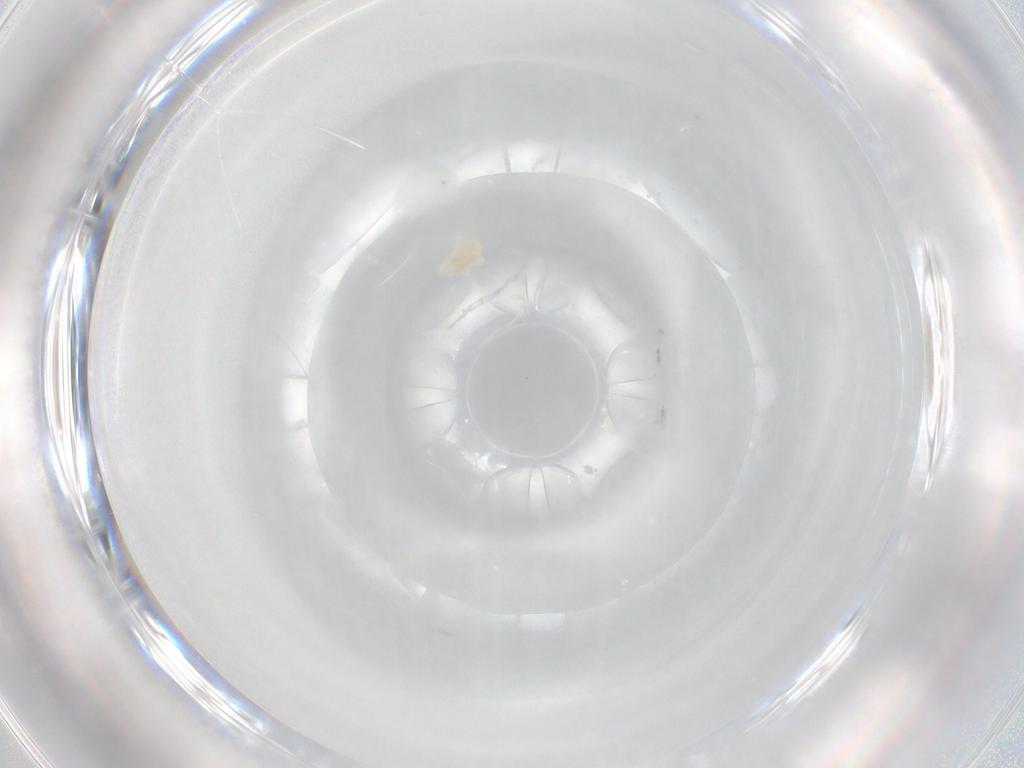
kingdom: Animalia
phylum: Arthropoda
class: Arachnida
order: Trombidiformes
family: Eupodidae
